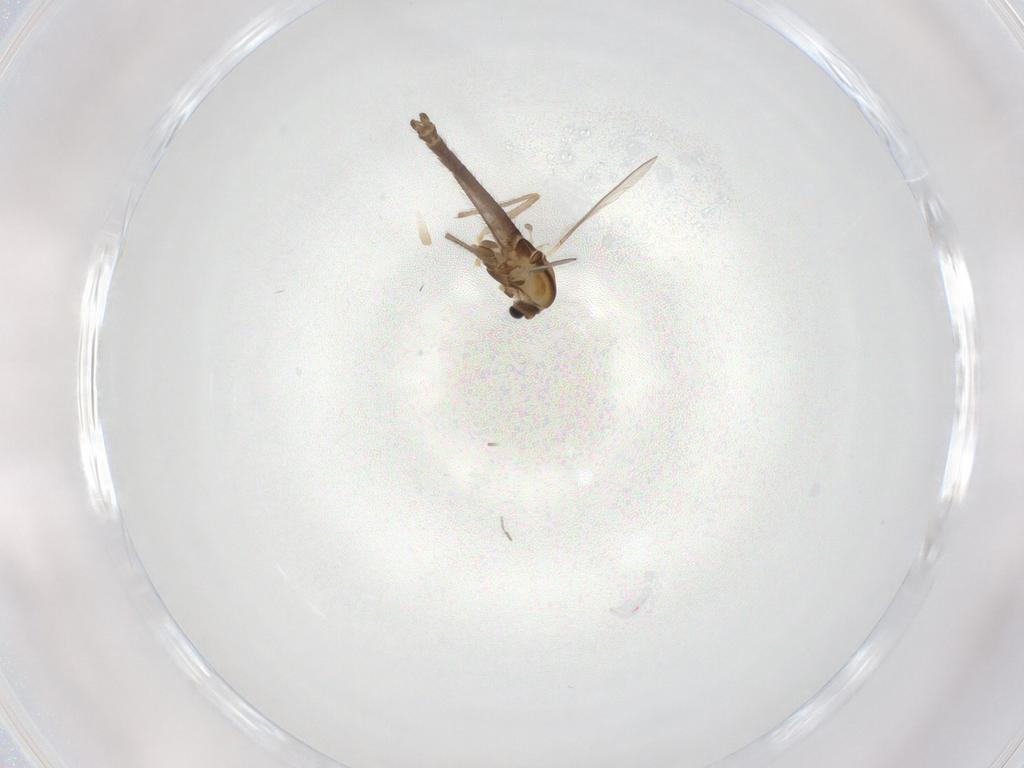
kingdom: Animalia
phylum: Arthropoda
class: Insecta
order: Diptera
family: Chironomidae
